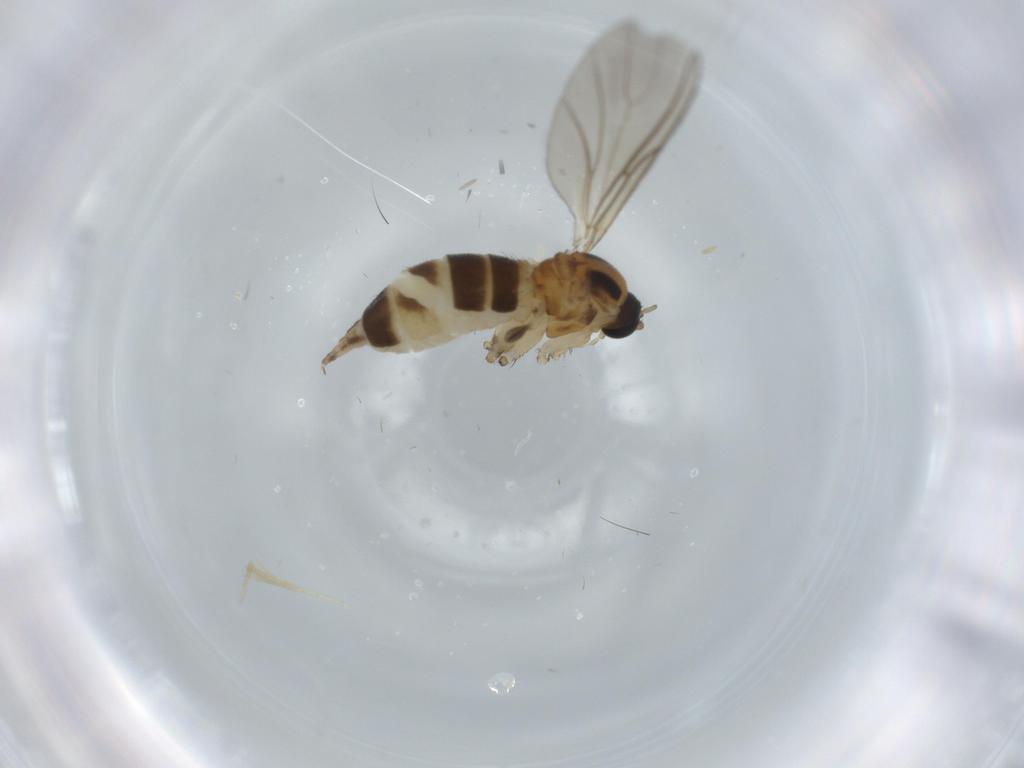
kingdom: Animalia
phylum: Arthropoda
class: Insecta
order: Diptera
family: Sciaridae
